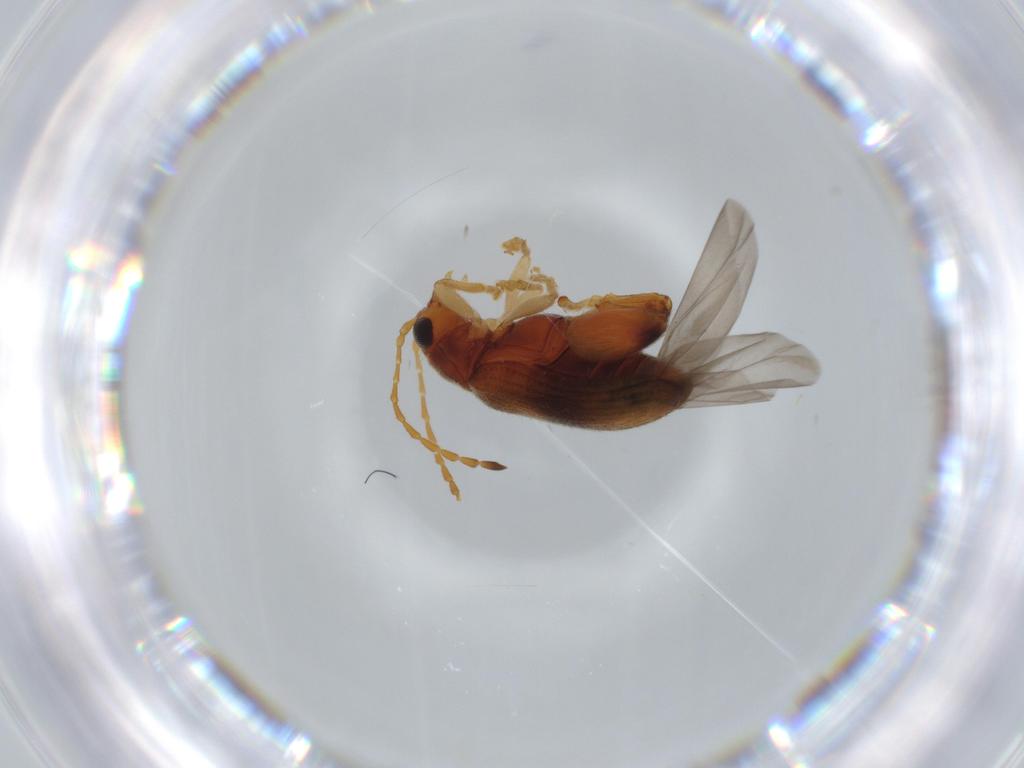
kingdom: Animalia
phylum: Arthropoda
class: Insecta
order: Coleoptera
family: Chrysomelidae
